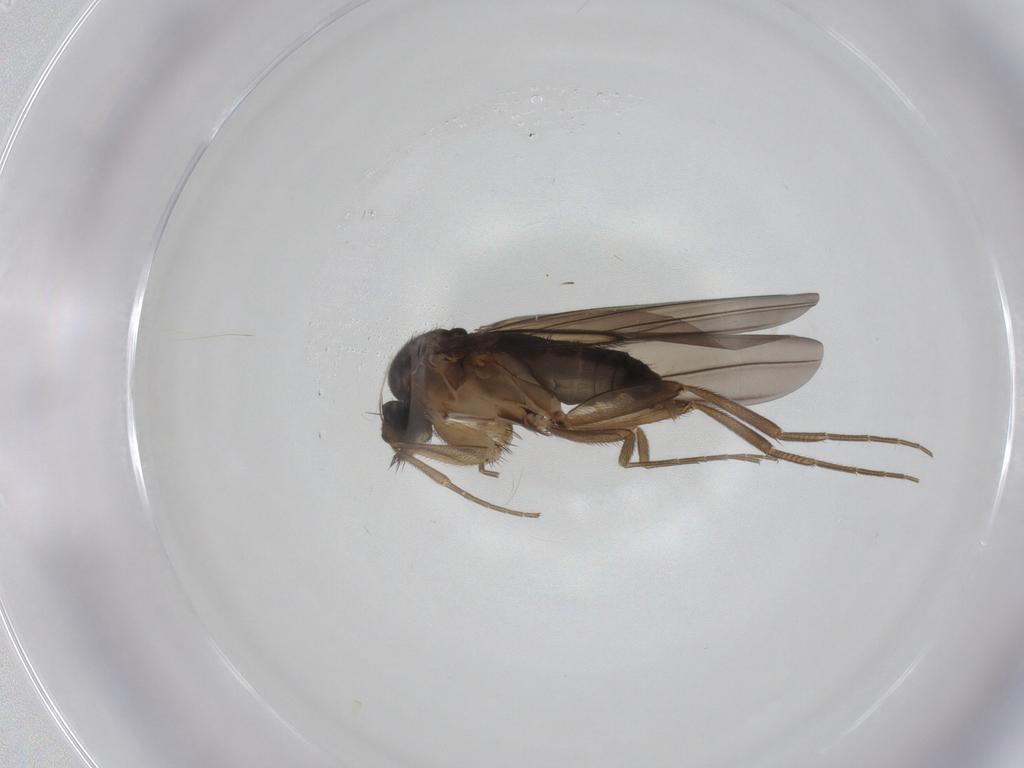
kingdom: Animalia
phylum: Arthropoda
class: Insecta
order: Diptera
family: Phoridae
